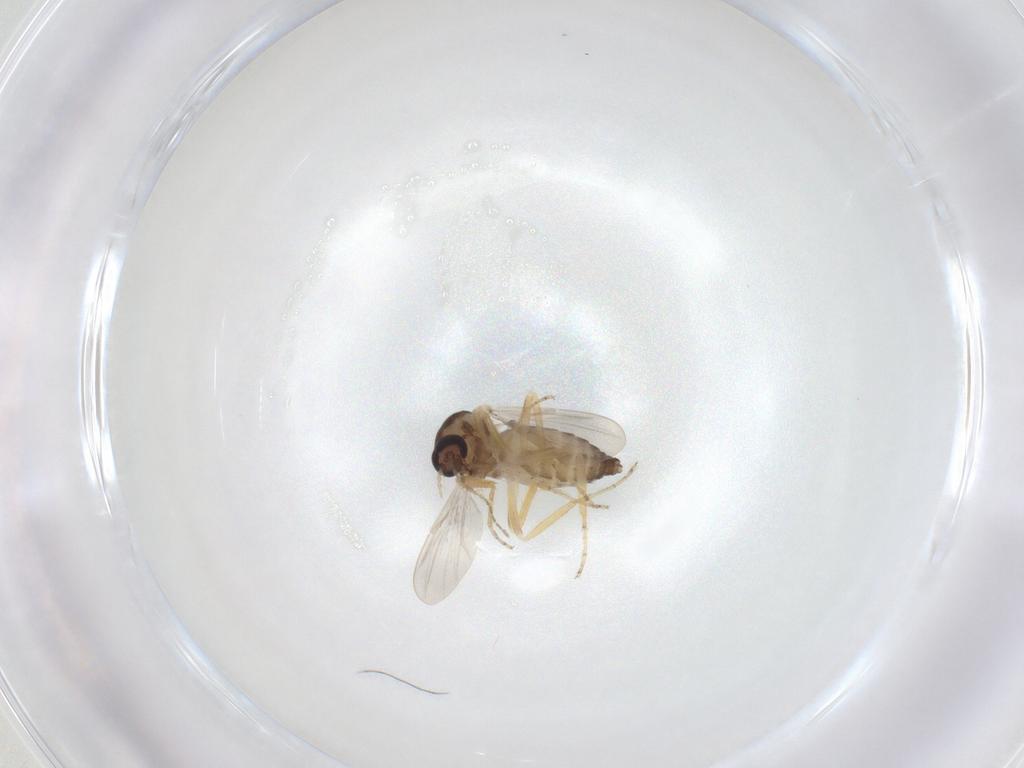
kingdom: Animalia
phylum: Arthropoda
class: Insecta
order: Diptera
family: Ceratopogonidae
